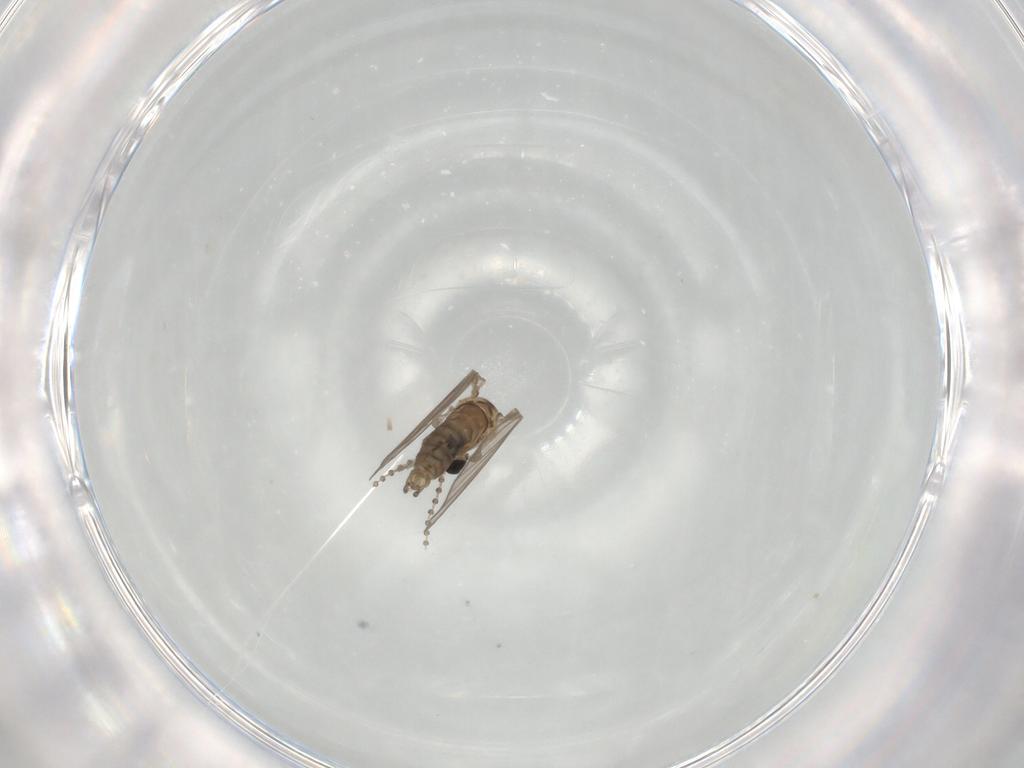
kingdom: Animalia
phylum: Arthropoda
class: Insecta
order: Diptera
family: Psychodidae
